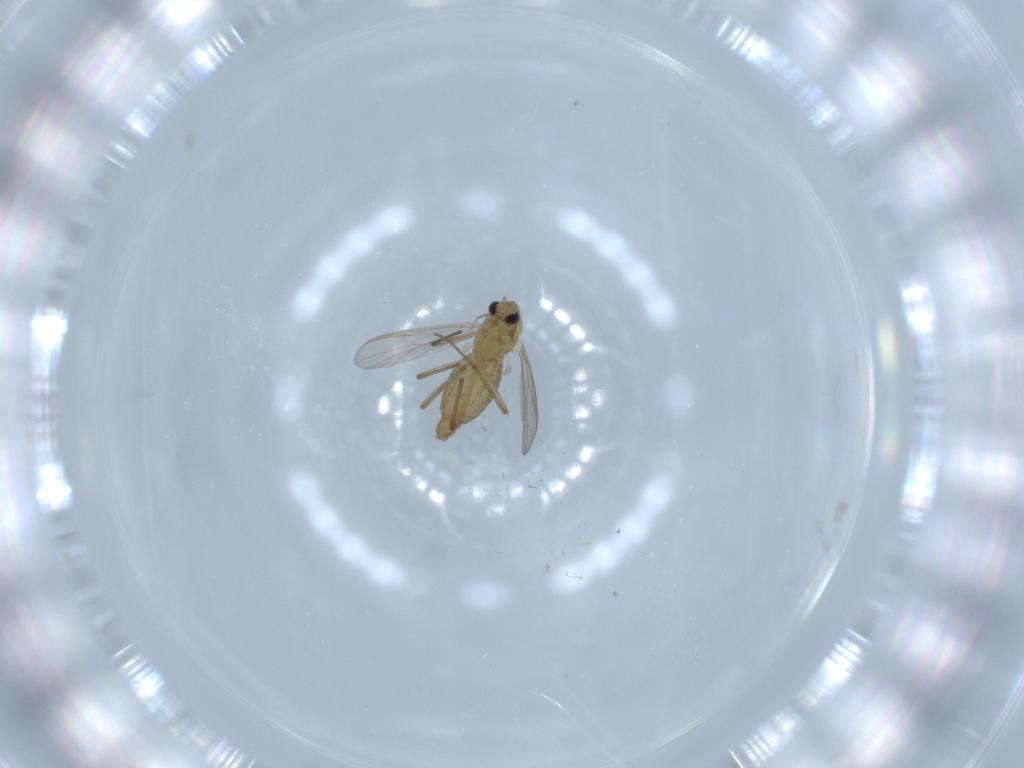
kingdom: Animalia
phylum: Arthropoda
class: Insecta
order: Diptera
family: Chironomidae
